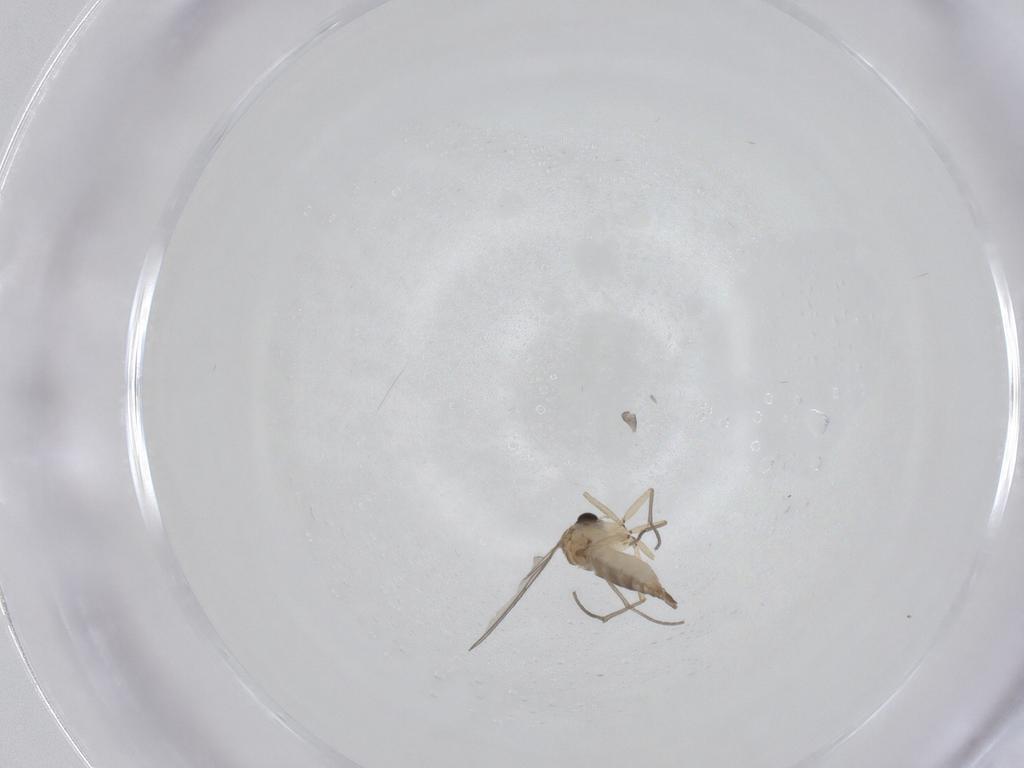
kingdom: Animalia
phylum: Arthropoda
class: Insecta
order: Diptera
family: Sciaridae
